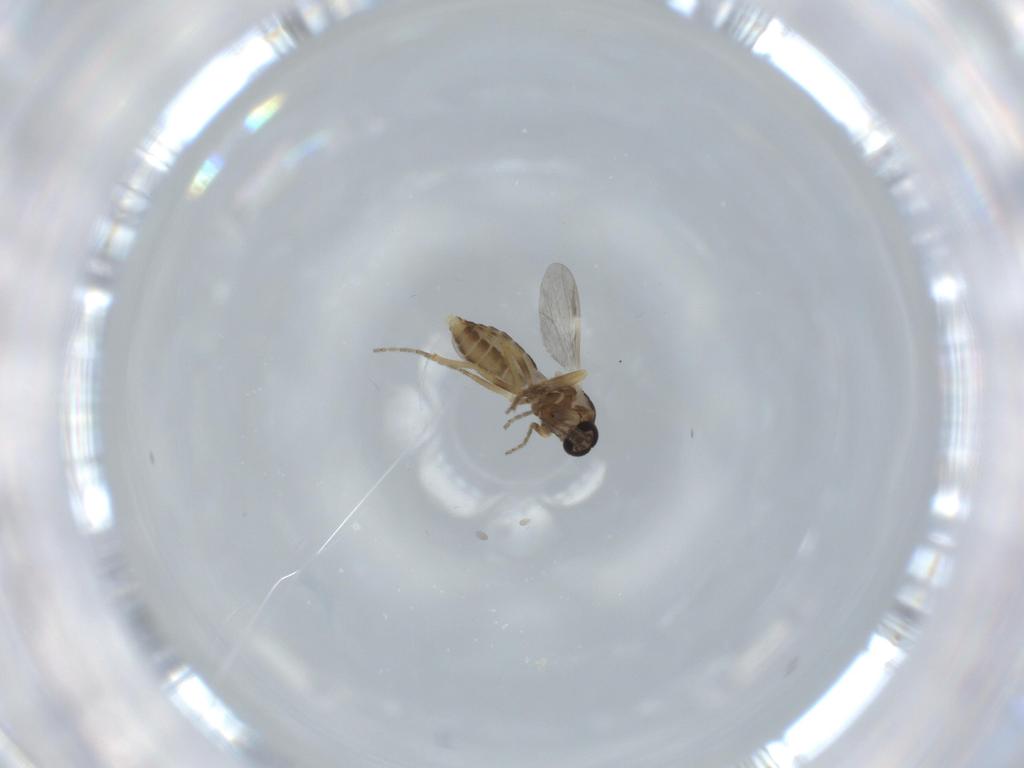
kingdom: Animalia
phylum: Arthropoda
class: Insecta
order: Diptera
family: Ceratopogonidae
